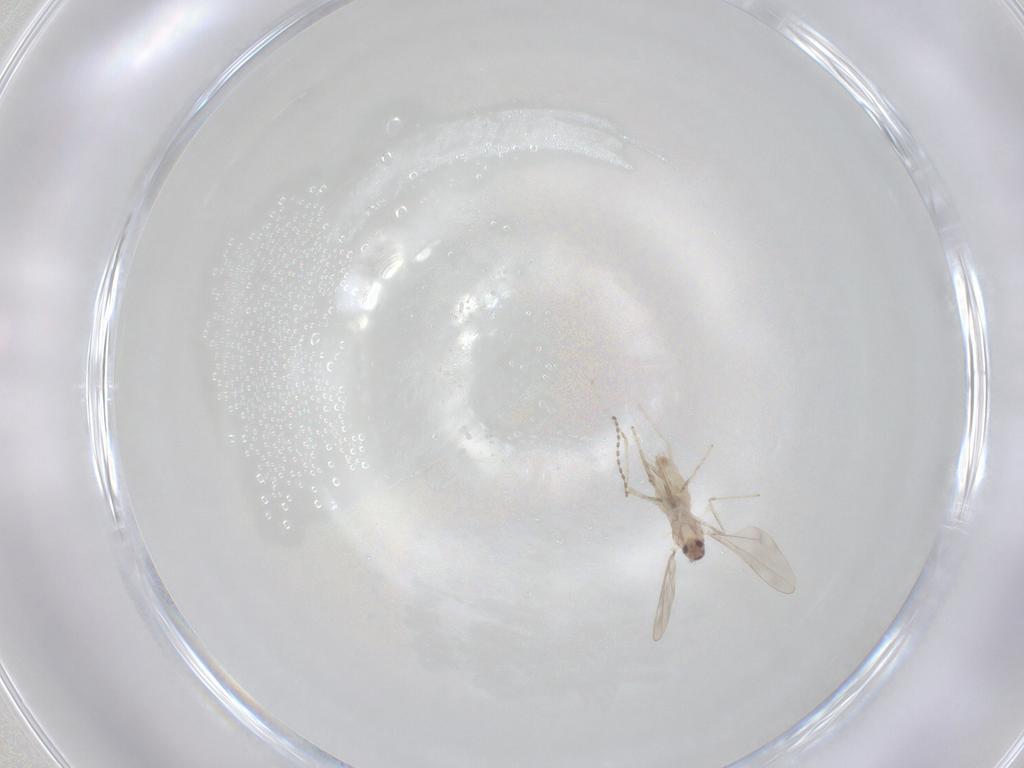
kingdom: Animalia
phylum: Arthropoda
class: Insecta
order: Diptera
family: Cecidomyiidae
